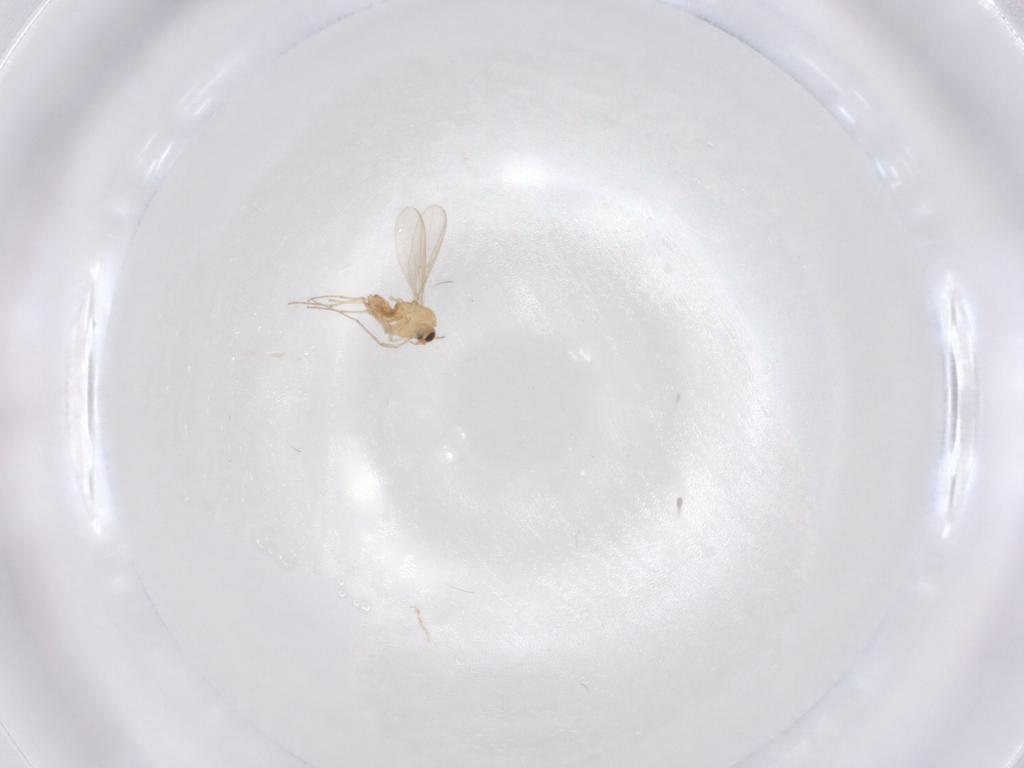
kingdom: Animalia
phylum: Arthropoda
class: Insecta
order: Diptera
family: Chironomidae
